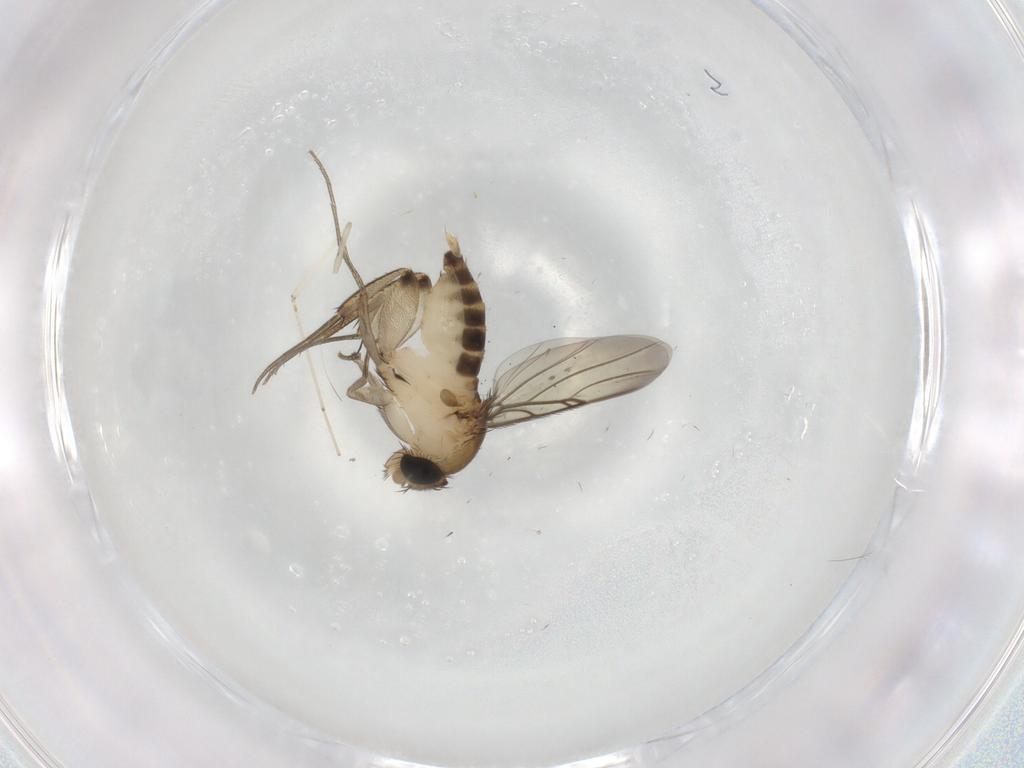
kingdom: Animalia
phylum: Arthropoda
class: Insecta
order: Diptera
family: Phoridae
